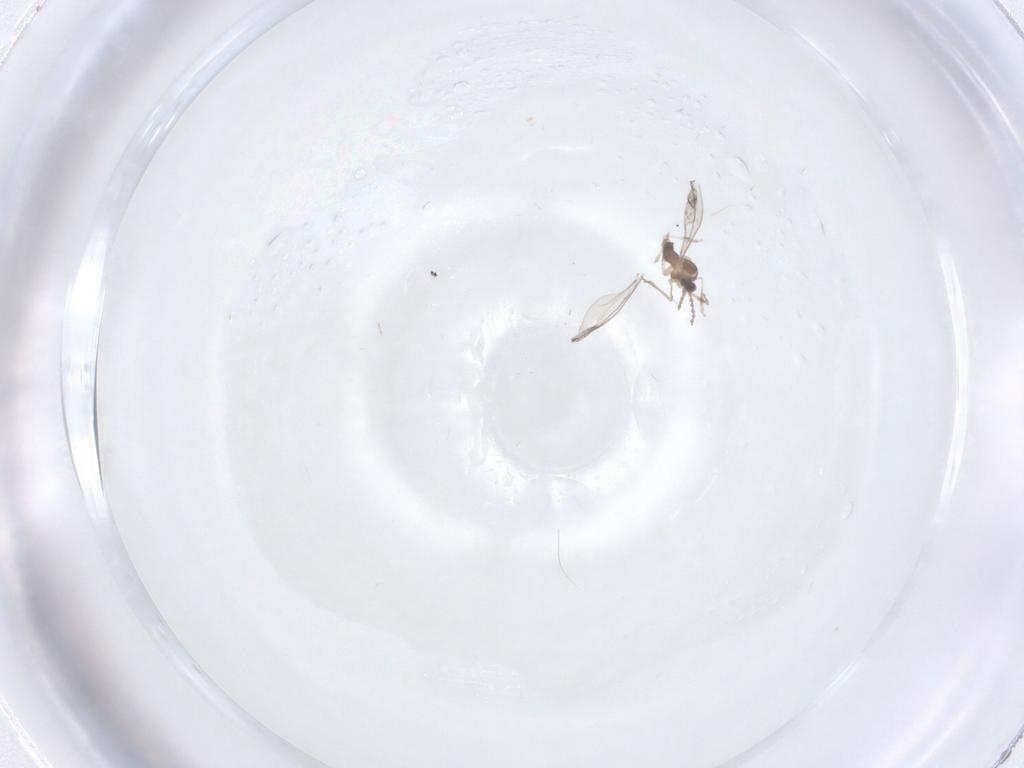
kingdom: Animalia
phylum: Arthropoda
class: Insecta
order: Diptera
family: Cecidomyiidae
